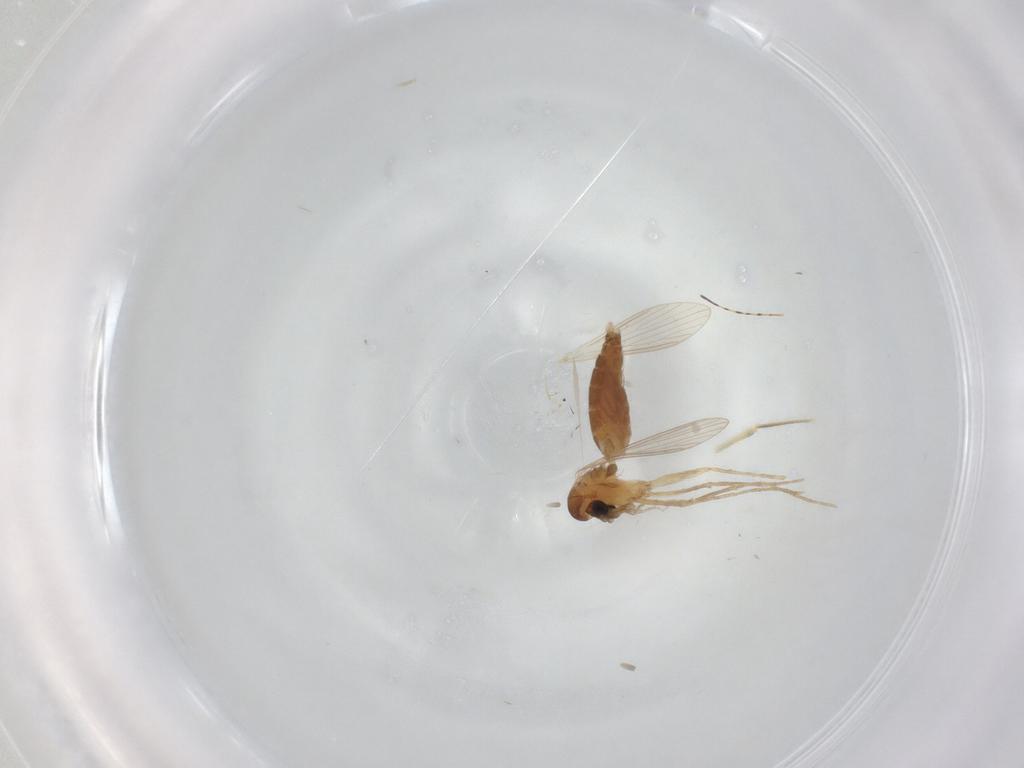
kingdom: Animalia
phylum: Arthropoda
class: Insecta
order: Diptera
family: Psychodidae
